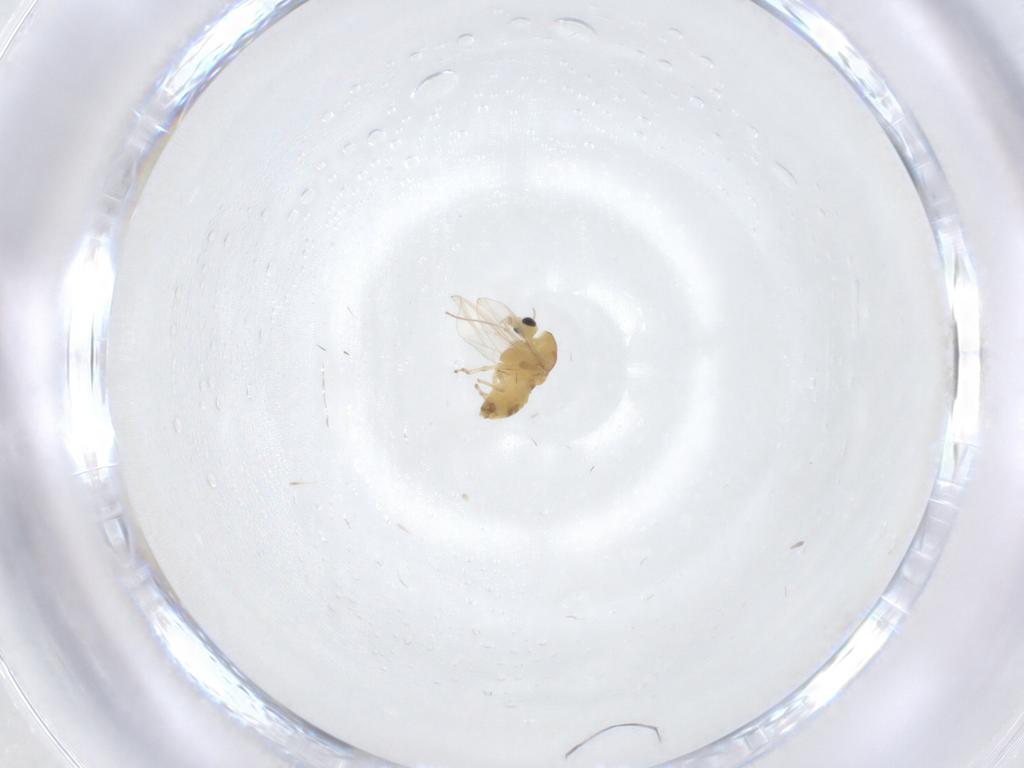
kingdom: Animalia
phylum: Arthropoda
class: Insecta
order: Diptera
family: Chironomidae
